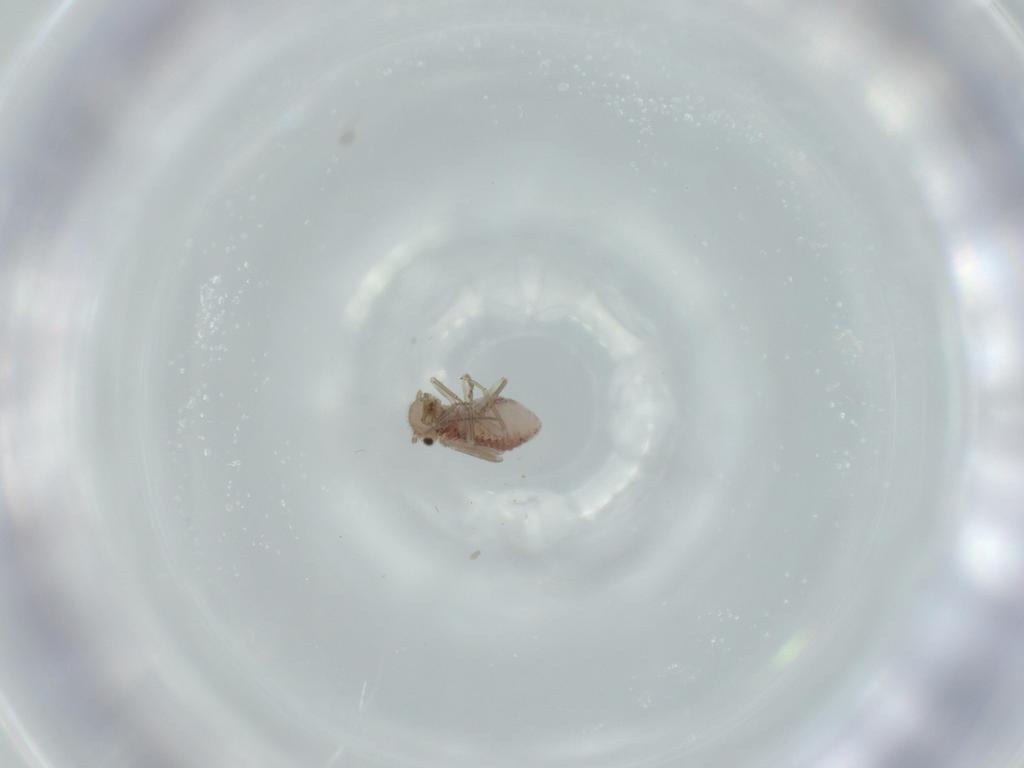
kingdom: Animalia
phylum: Arthropoda
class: Insecta
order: Psocodea
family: Ectopsocidae
